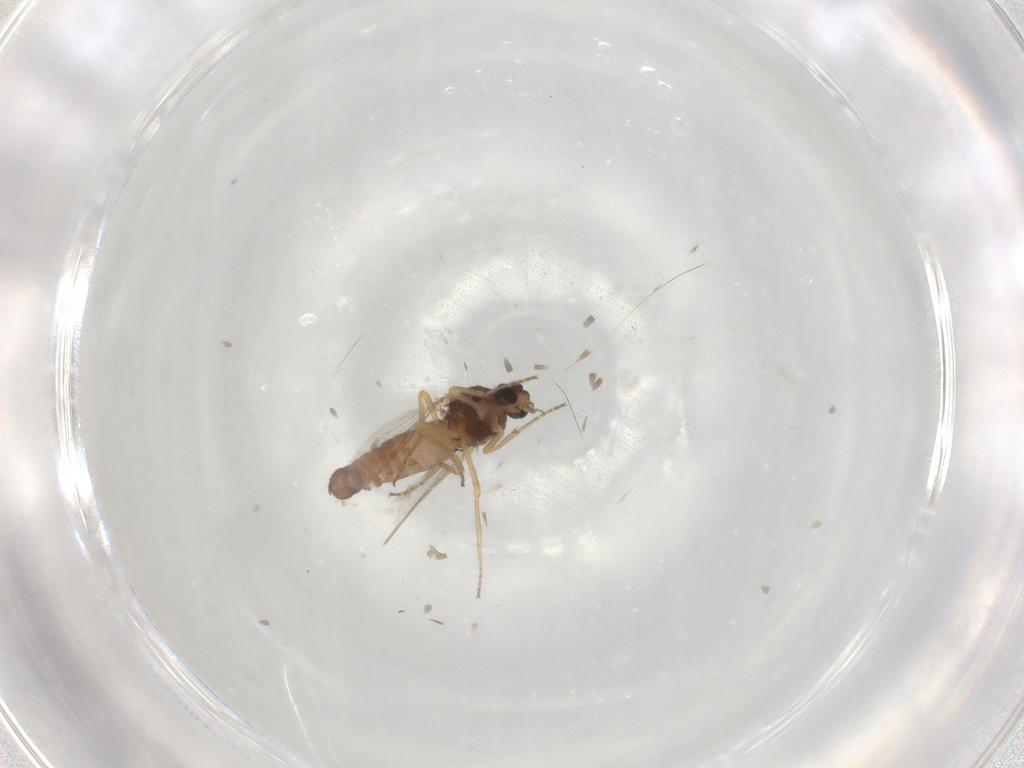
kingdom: Animalia
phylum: Arthropoda
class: Insecta
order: Diptera
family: Ceratopogonidae
